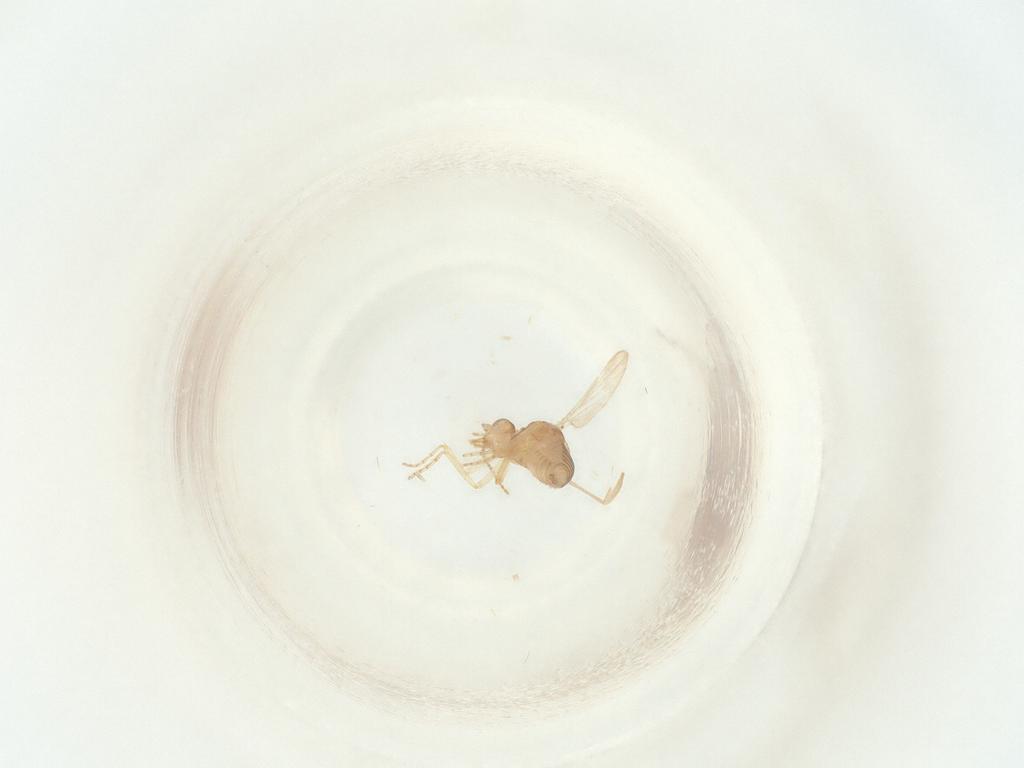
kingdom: Animalia
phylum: Arthropoda
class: Insecta
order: Diptera
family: Ceratopogonidae
